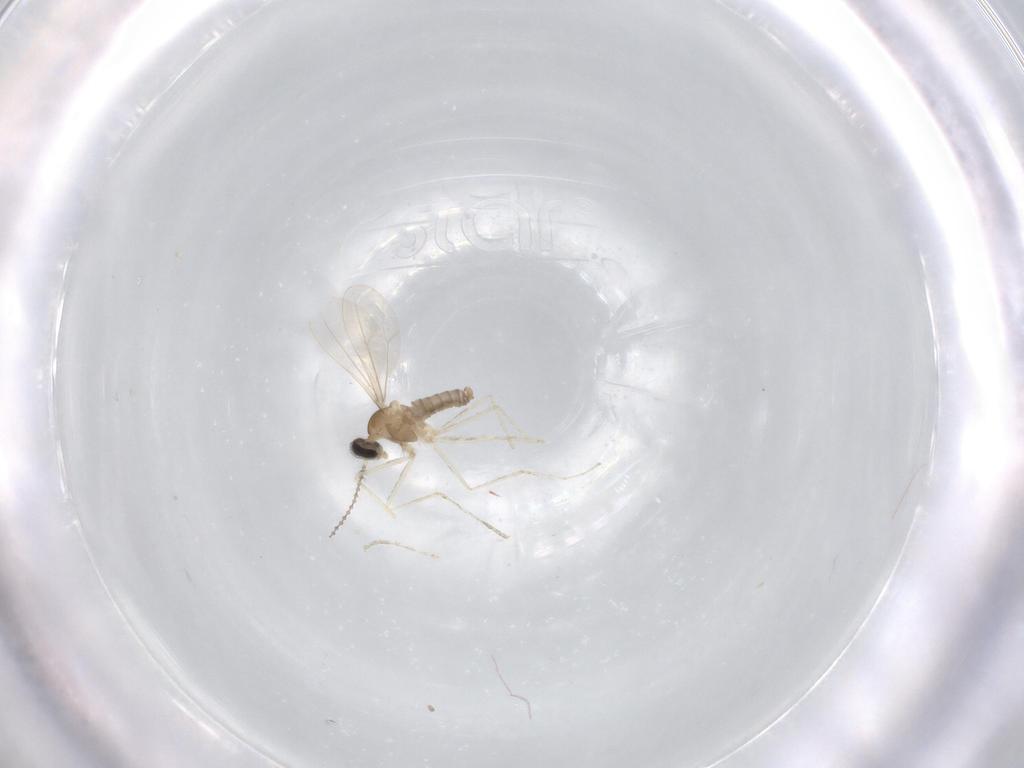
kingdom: Animalia
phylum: Arthropoda
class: Insecta
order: Diptera
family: Cecidomyiidae
